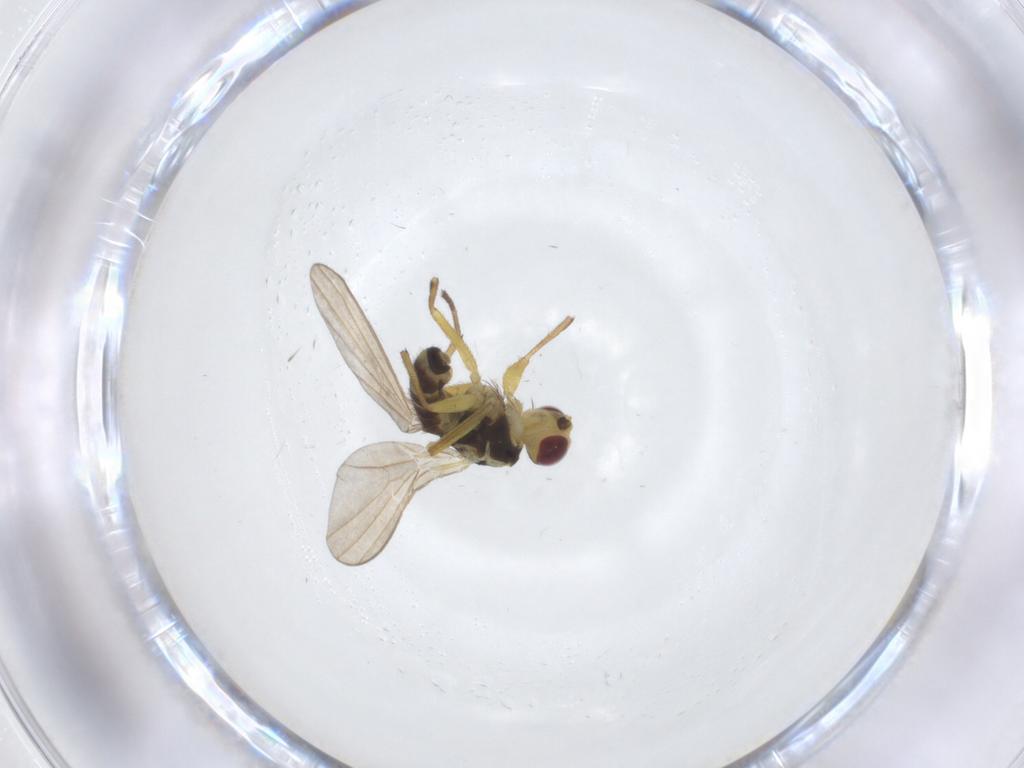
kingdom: Animalia
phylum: Arthropoda
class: Insecta
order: Diptera
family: Agromyzidae
